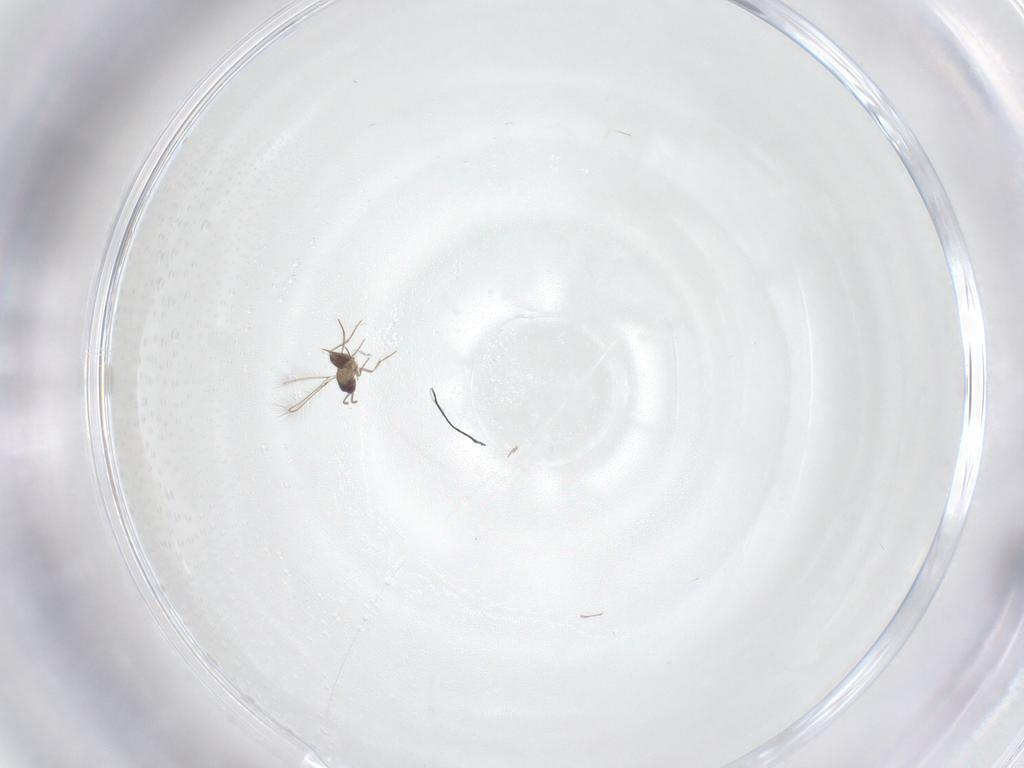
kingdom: Animalia
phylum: Arthropoda
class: Insecta
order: Hymenoptera
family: Mymaridae
